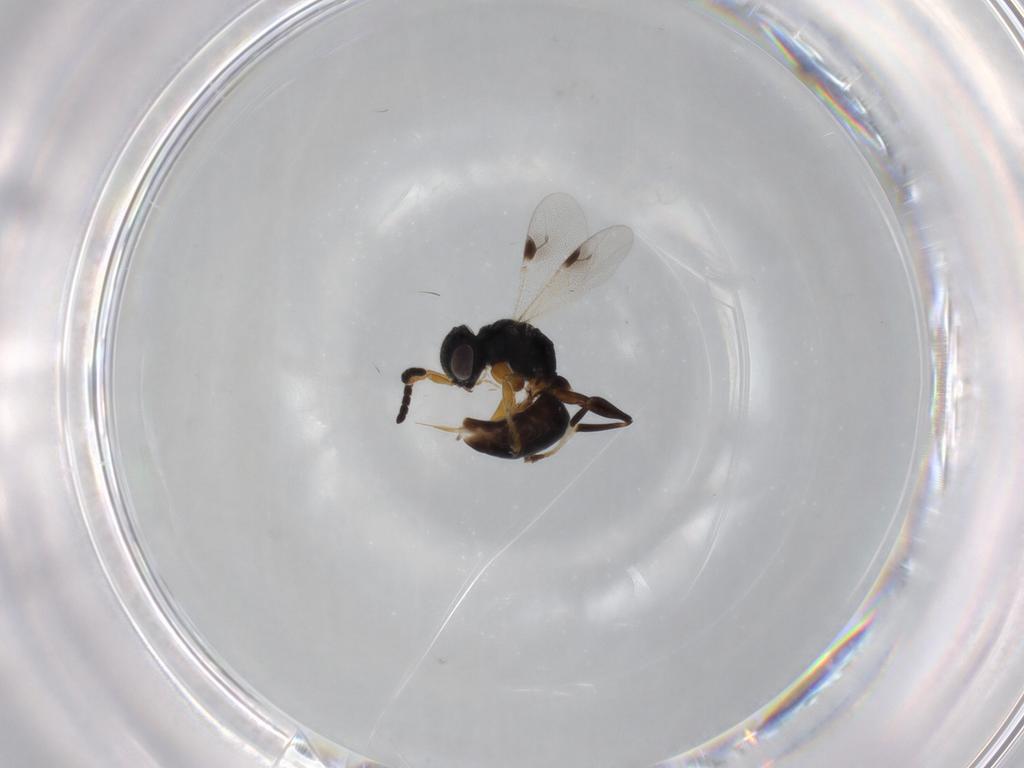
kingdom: Animalia
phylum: Arthropoda
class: Insecta
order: Hymenoptera
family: Dryinidae
